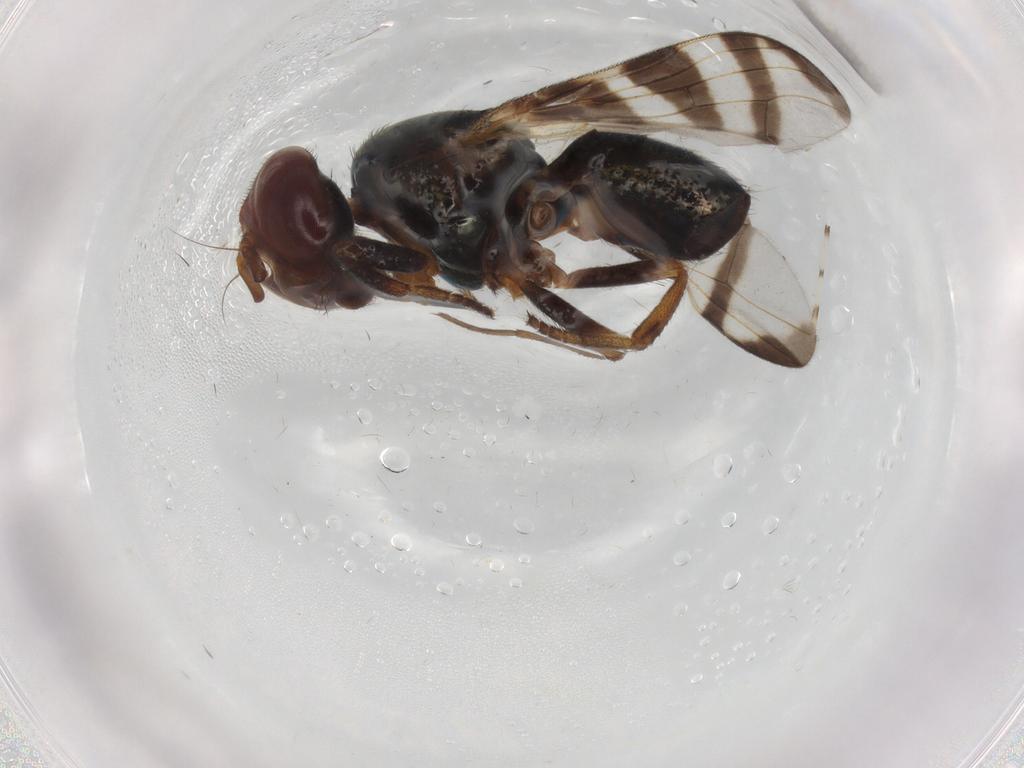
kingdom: Animalia
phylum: Arthropoda
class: Insecta
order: Diptera
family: Platystomatidae
